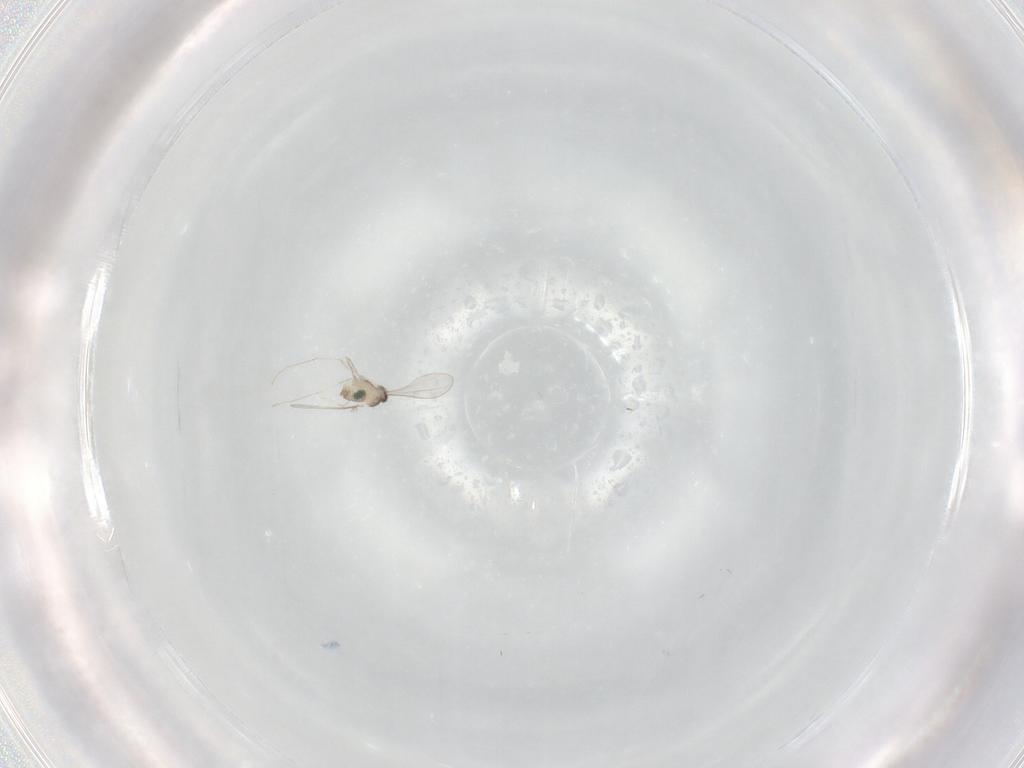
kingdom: Animalia
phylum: Arthropoda
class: Insecta
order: Diptera
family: Cecidomyiidae
